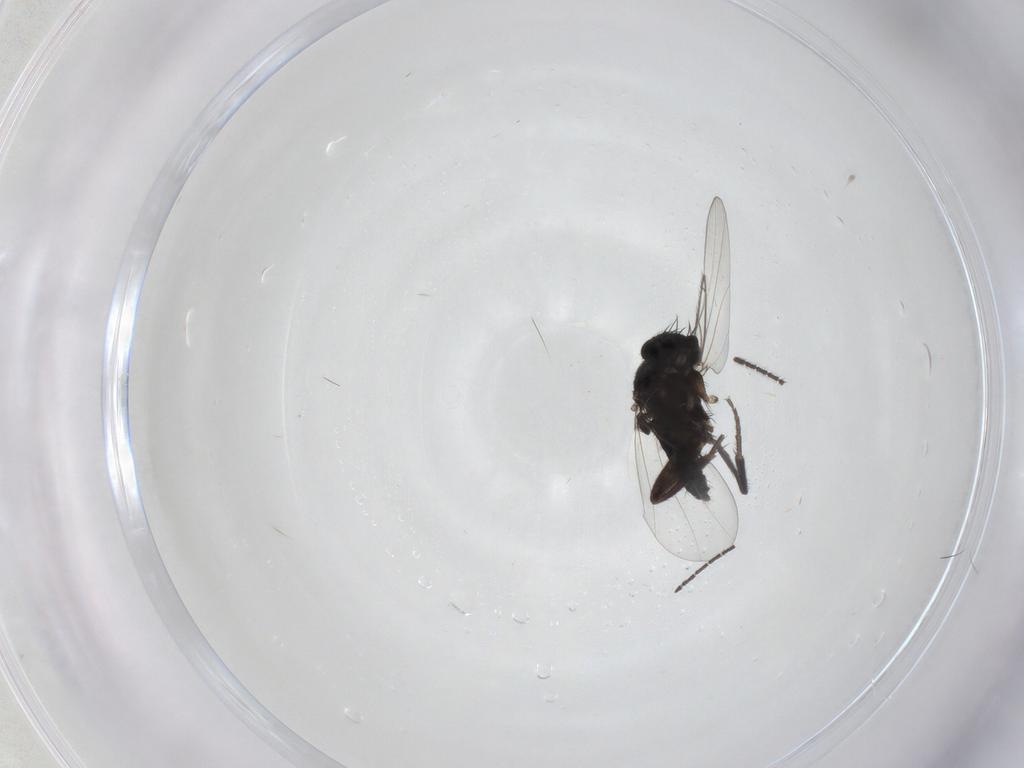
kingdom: Animalia
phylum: Arthropoda
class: Insecta
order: Diptera
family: Phoridae
